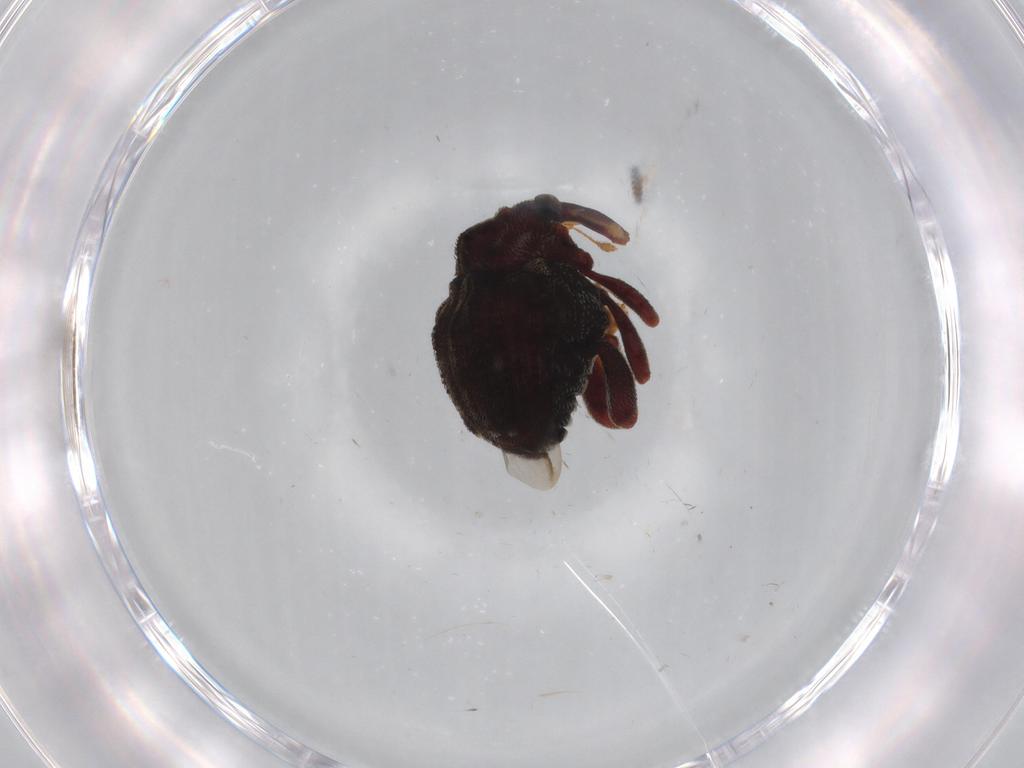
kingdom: Animalia
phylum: Arthropoda
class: Insecta
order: Coleoptera
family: Curculionidae
